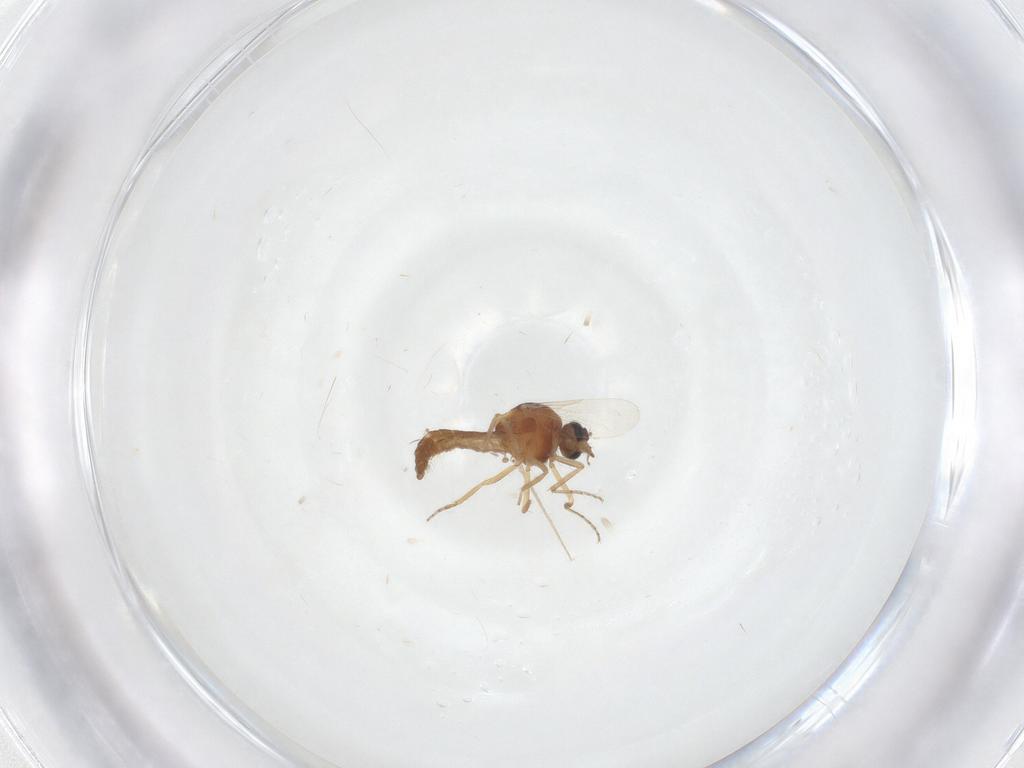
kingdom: Animalia
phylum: Arthropoda
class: Insecta
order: Diptera
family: Ceratopogonidae
